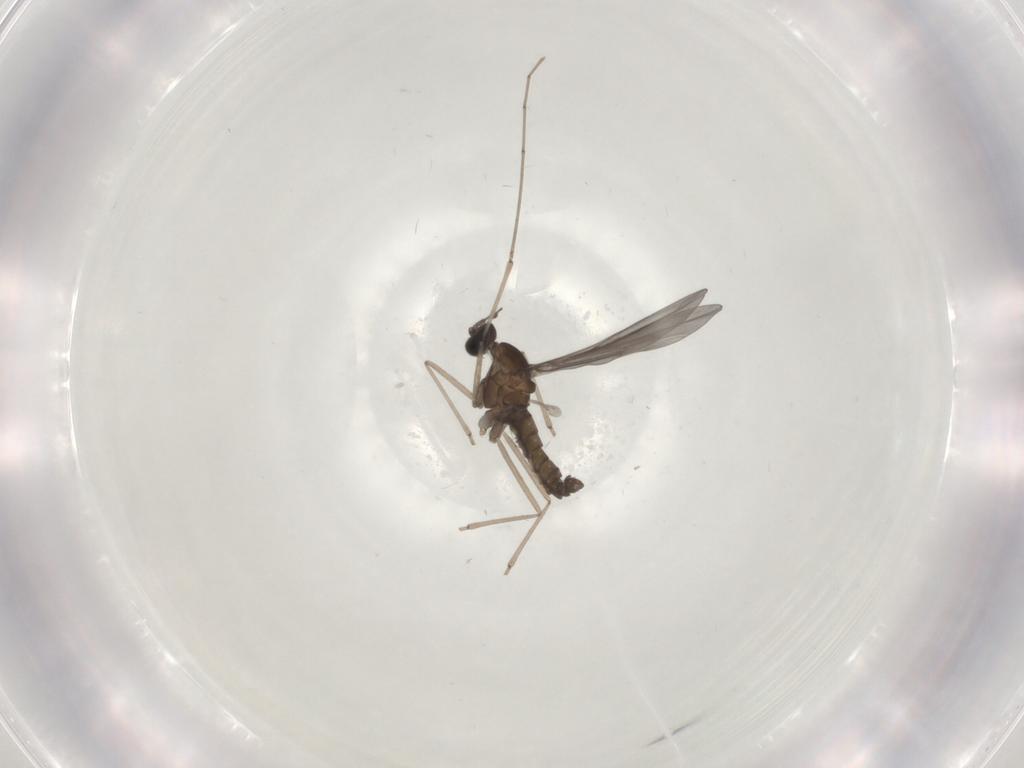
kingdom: Animalia
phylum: Arthropoda
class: Insecta
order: Diptera
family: Cecidomyiidae
